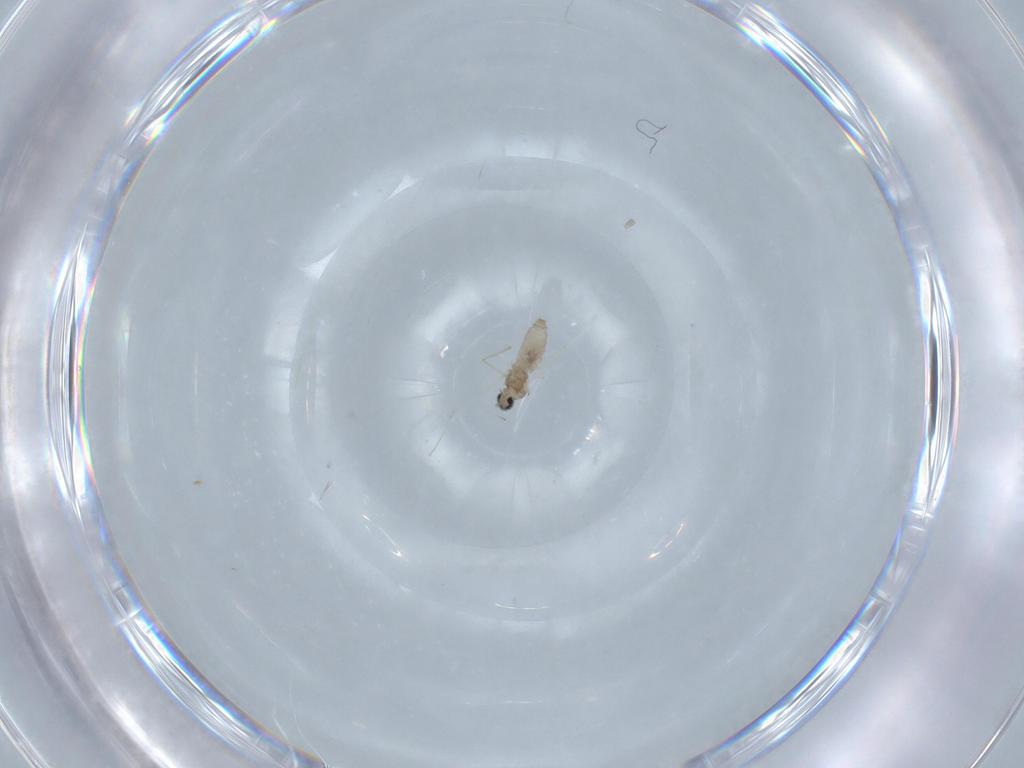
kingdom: Animalia
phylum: Arthropoda
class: Insecta
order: Diptera
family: Cecidomyiidae
